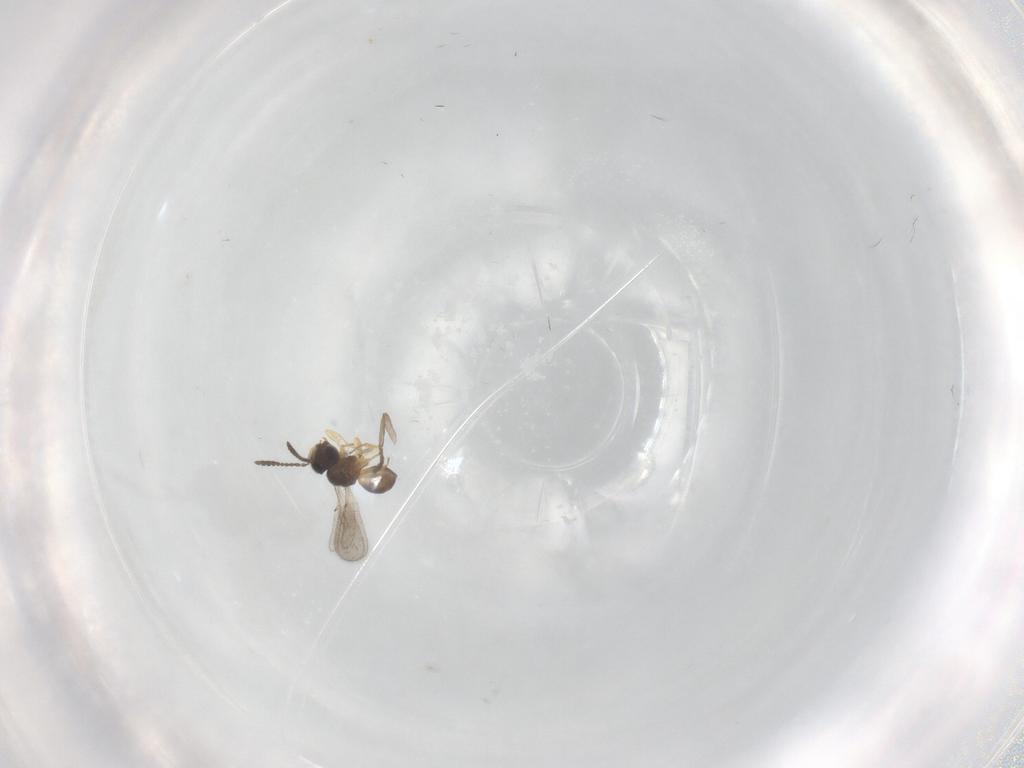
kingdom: Animalia
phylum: Arthropoda
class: Insecta
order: Hymenoptera
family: Scelionidae
